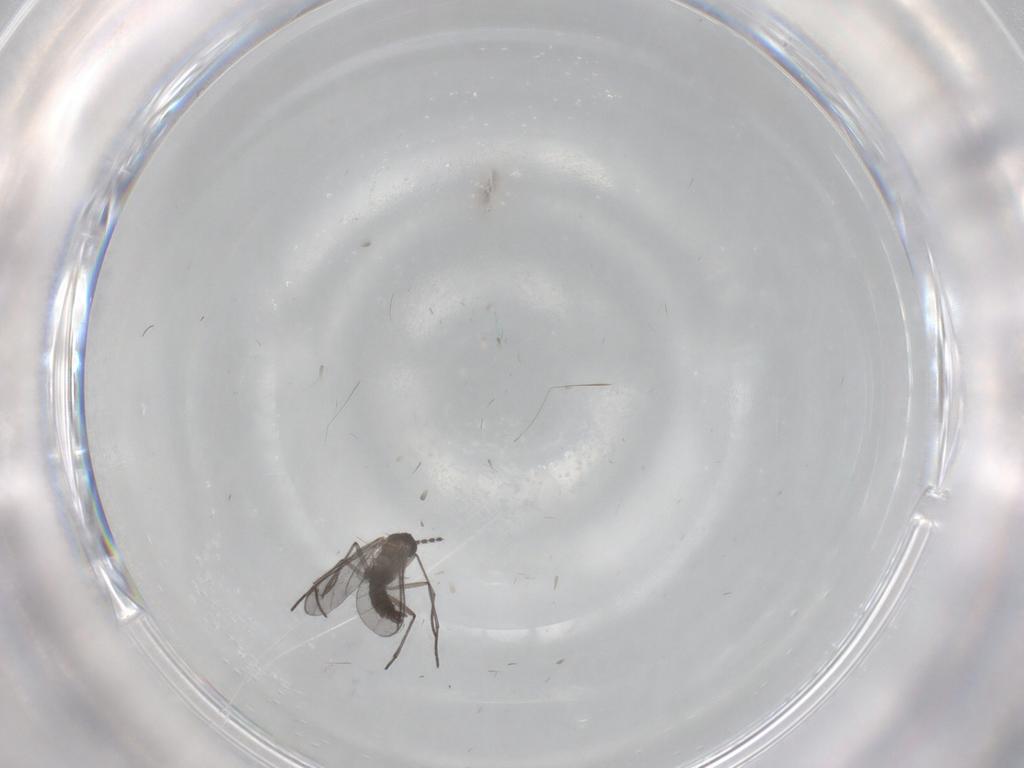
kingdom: Animalia
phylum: Arthropoda
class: Insecta
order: Diptera
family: Sciaridae
